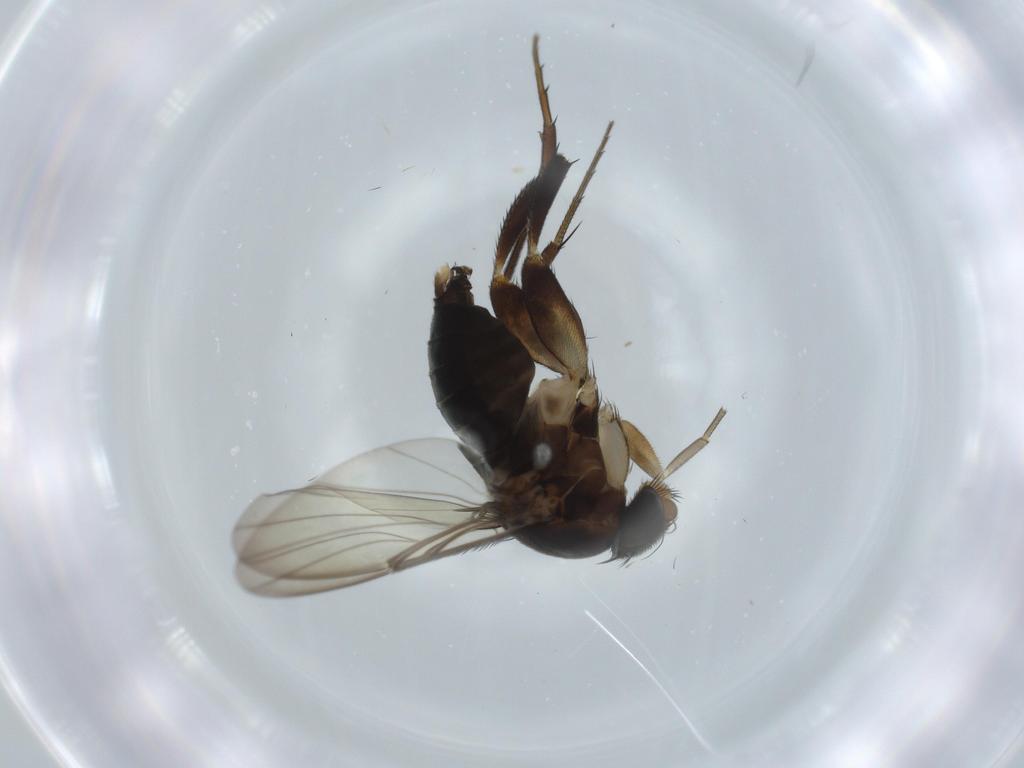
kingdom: Animalia
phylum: Arthropoda
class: Insecta
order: Diptera
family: Phoridae
